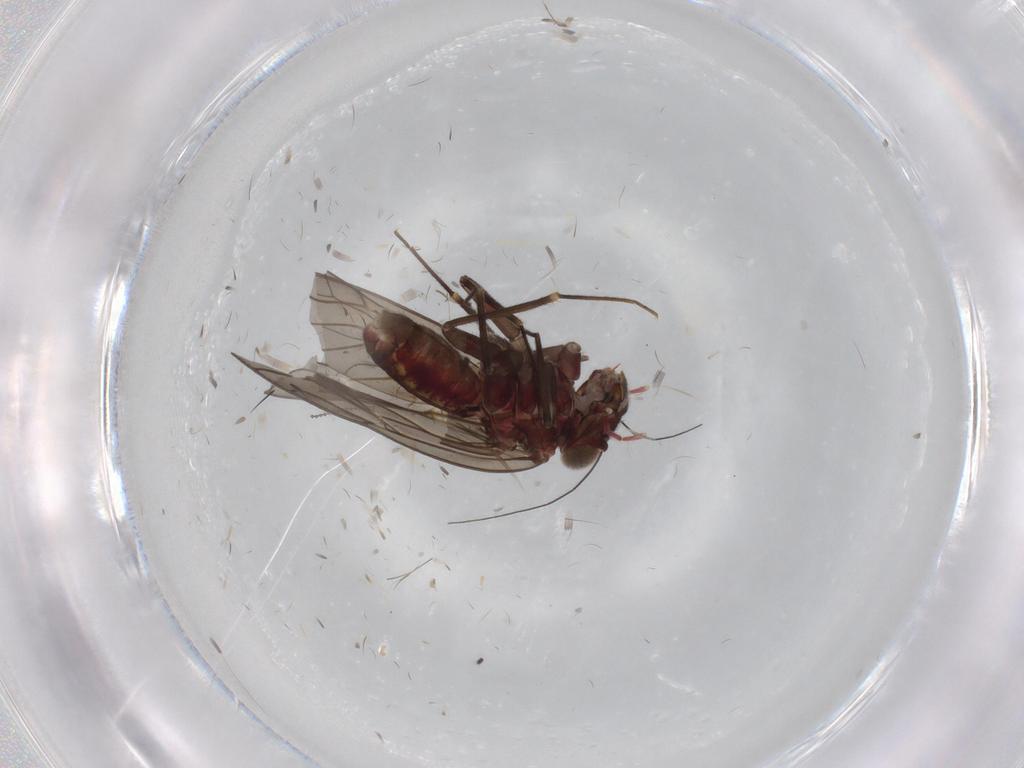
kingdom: Animalia
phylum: Arthropoda
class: Insecta
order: Psocodea
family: Philotarsidae
